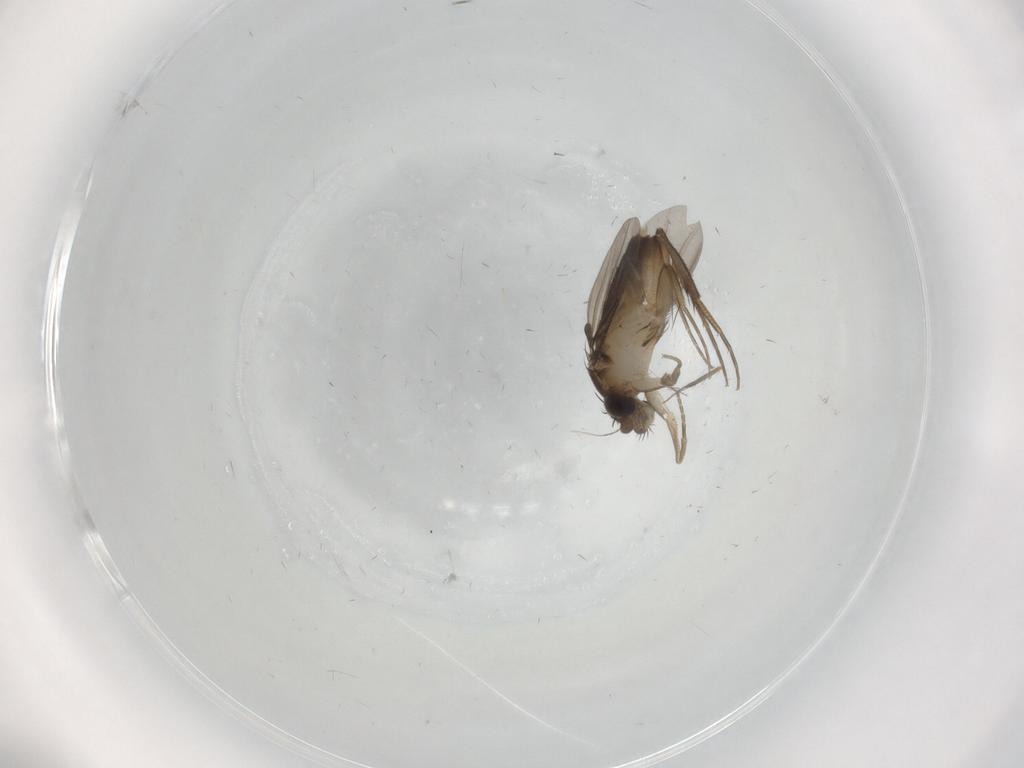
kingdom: Animalia
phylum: Arthropoda
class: Insecta
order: Diptera
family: Phoridae
